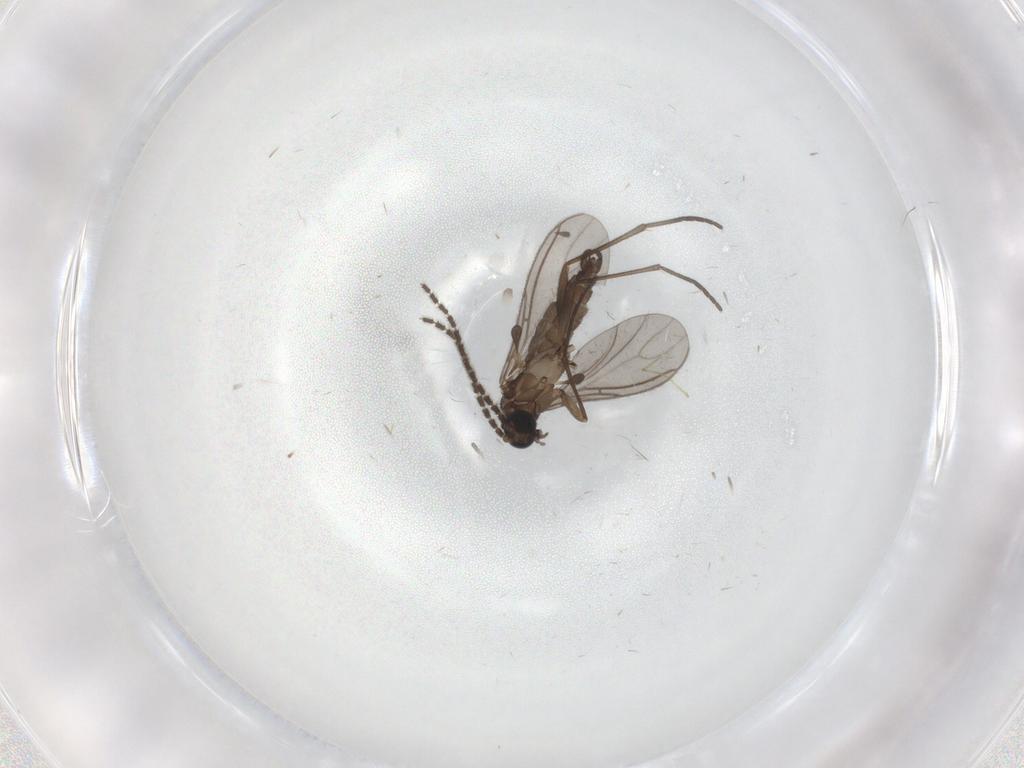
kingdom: Animalia
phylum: Arthropoda
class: Insecta
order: Diptera
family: Sciaridae
